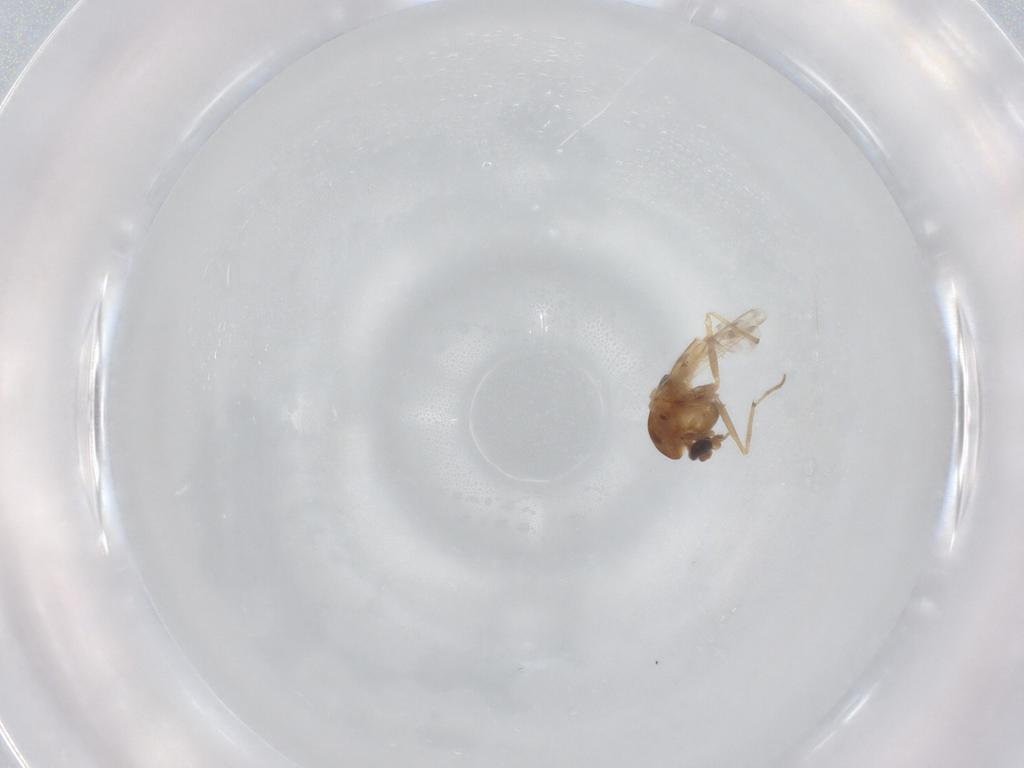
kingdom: Animalia
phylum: Arthropoda
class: Insecta
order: Diptera
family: Chironomidae
